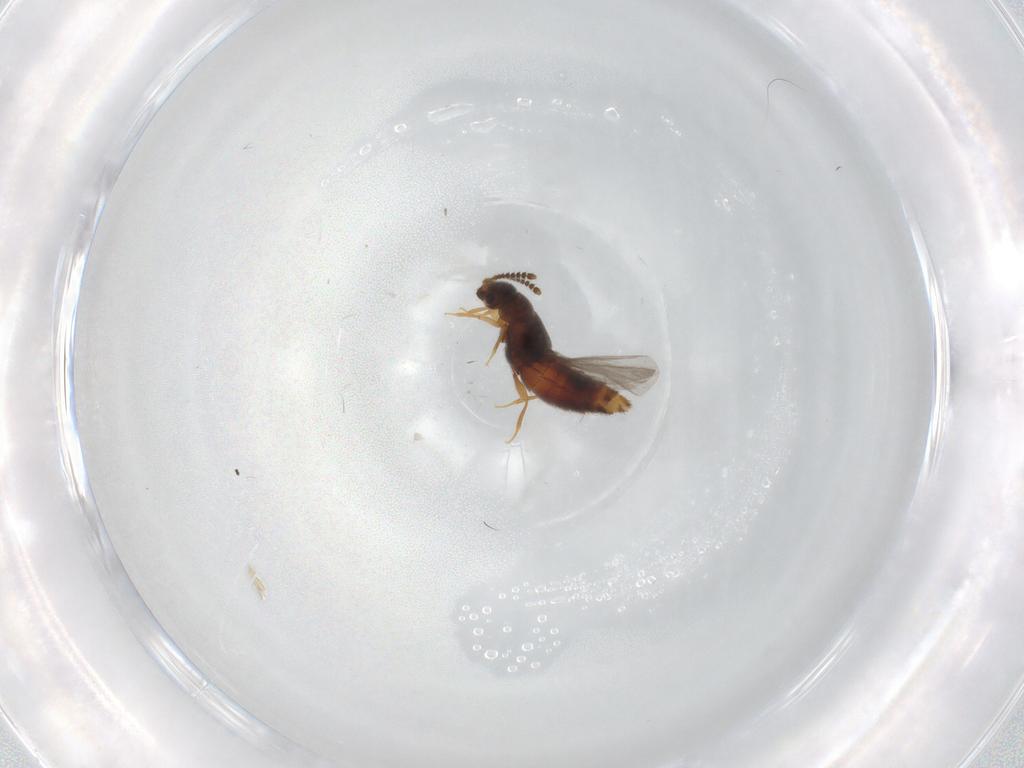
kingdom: Animalia
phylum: Arthropoda
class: Insecta
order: Coleoptera
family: Staphylinidae
